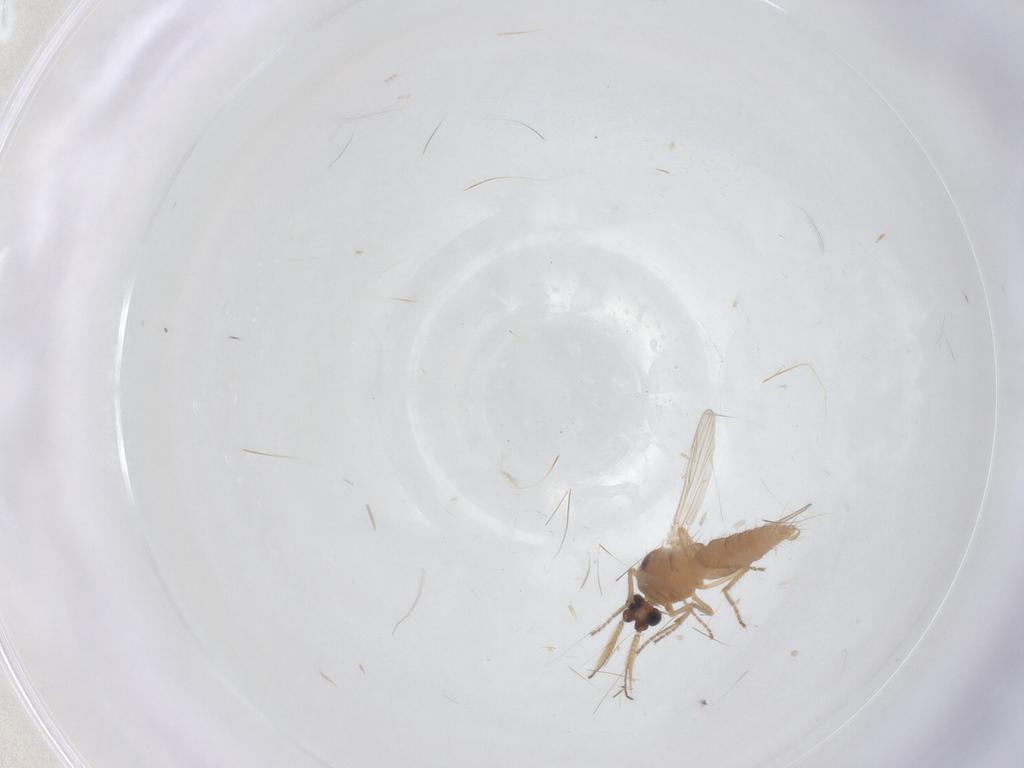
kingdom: Animalia
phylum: Arthropoda
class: Insecta
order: Diptera
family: Ceratopogonidae
